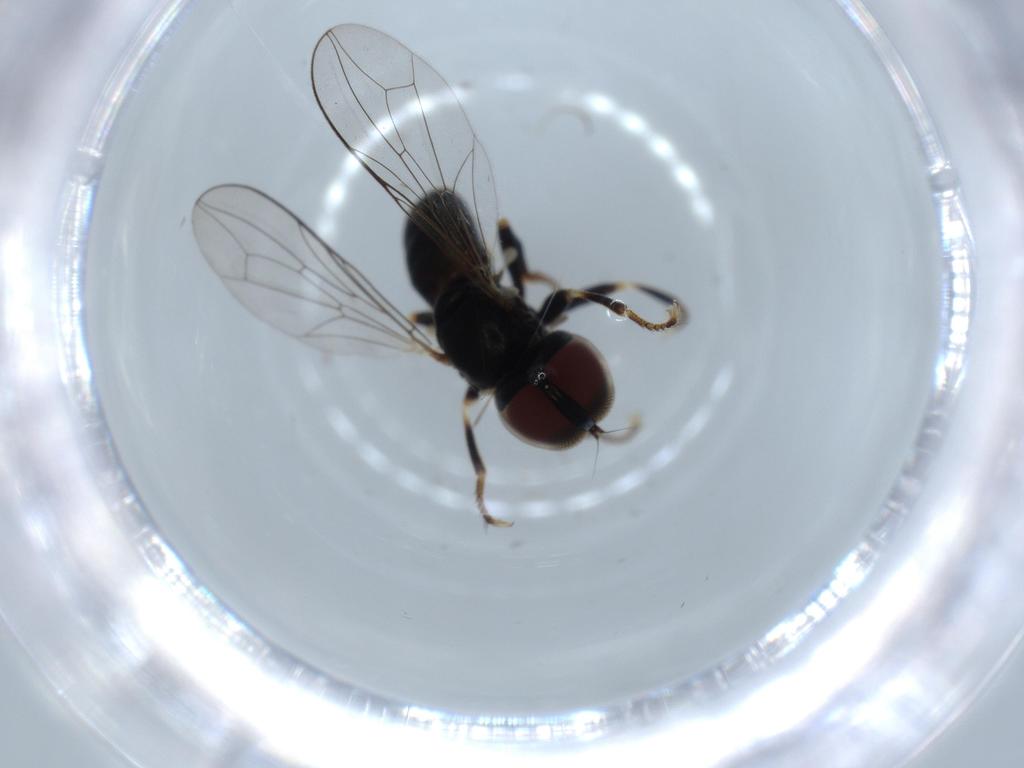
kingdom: Animalia
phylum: Arthropoda
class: Insecta
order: Diptera
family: Pipunculidae
